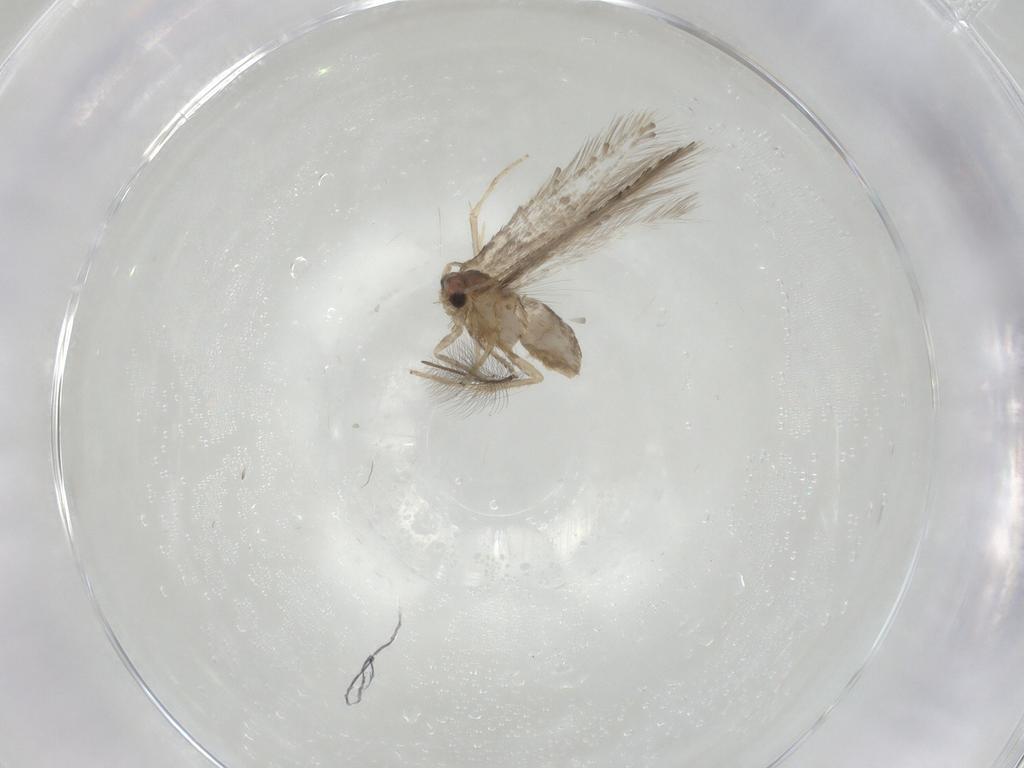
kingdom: Animalia
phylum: Arthropoda
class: Insecta
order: Lepidoptera
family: Nepticulidae
